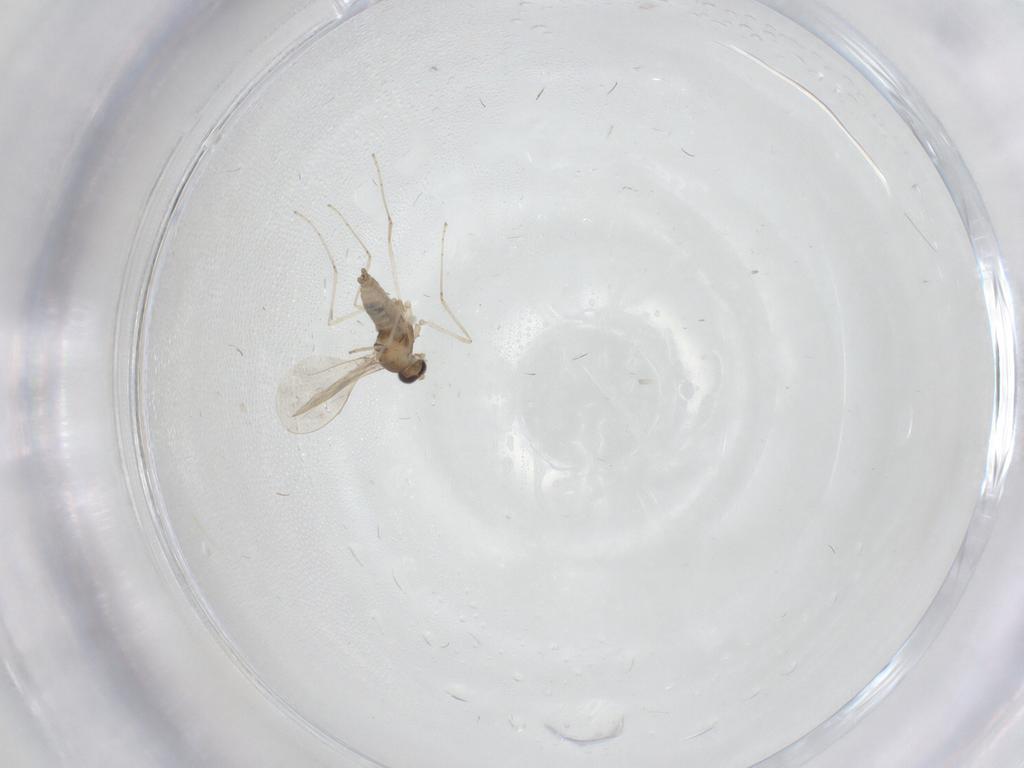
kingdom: Animalia
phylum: Arthropoda
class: Insecta
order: Diptera
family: Cecidomyiidae
